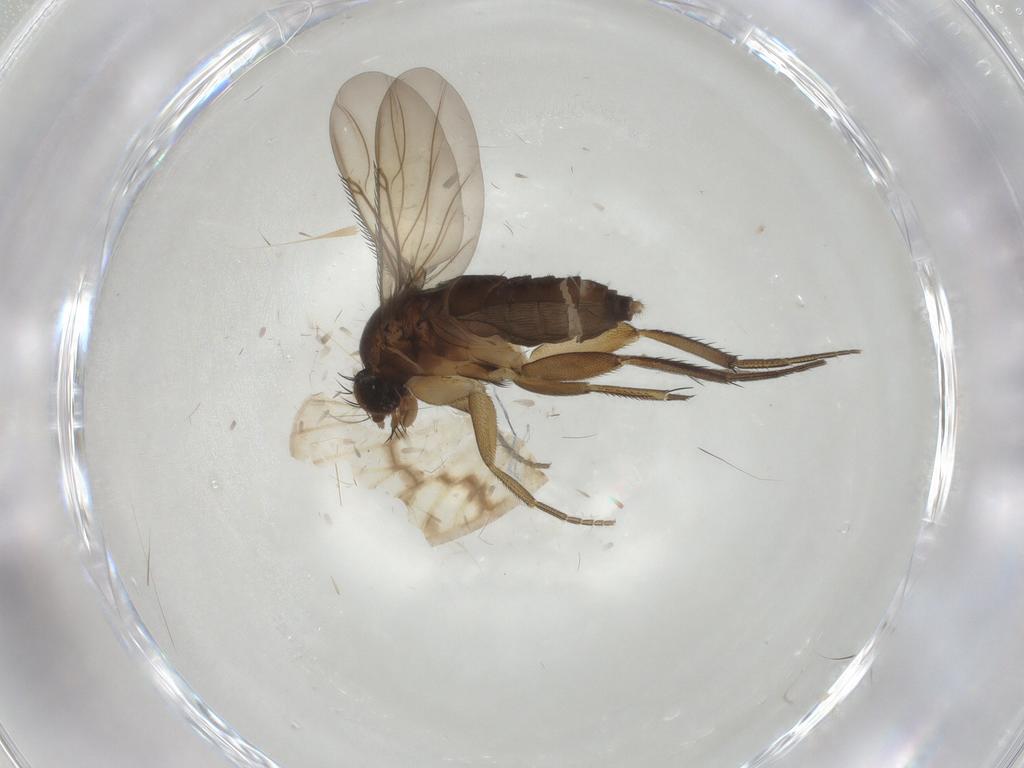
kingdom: Animalia
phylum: Arthropoda
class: Insecta
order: Diptera
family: Phoridae
